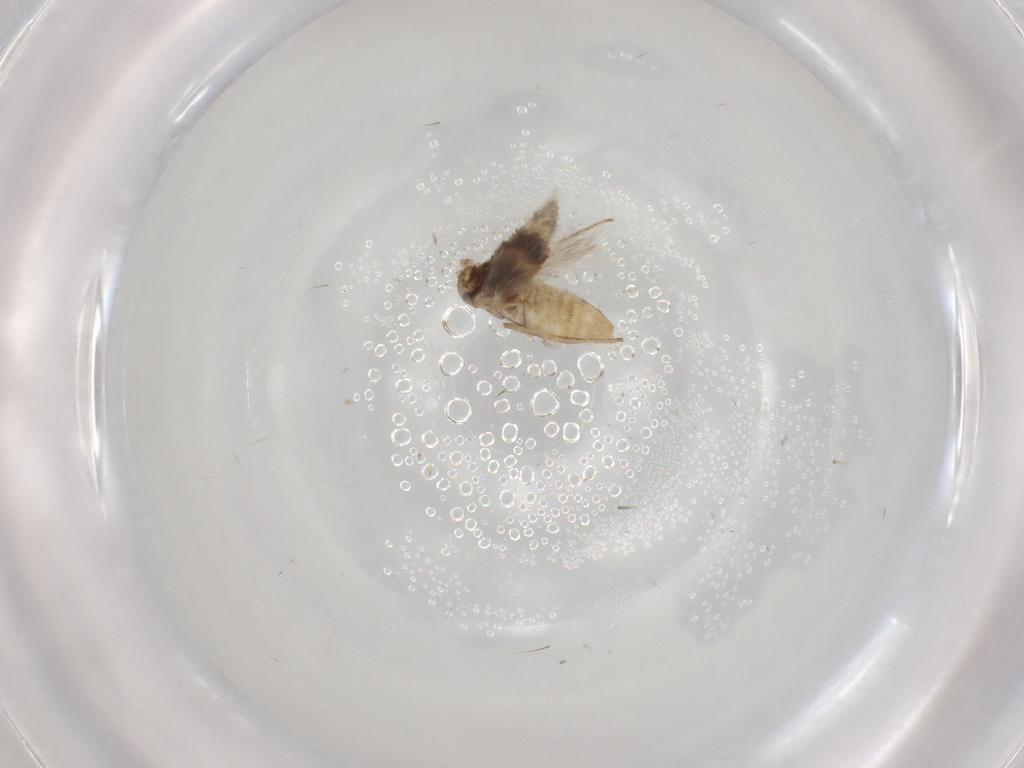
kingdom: Animalia
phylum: Arthropoda
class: Insecta
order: Lepidoptera
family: Nymphalidae
